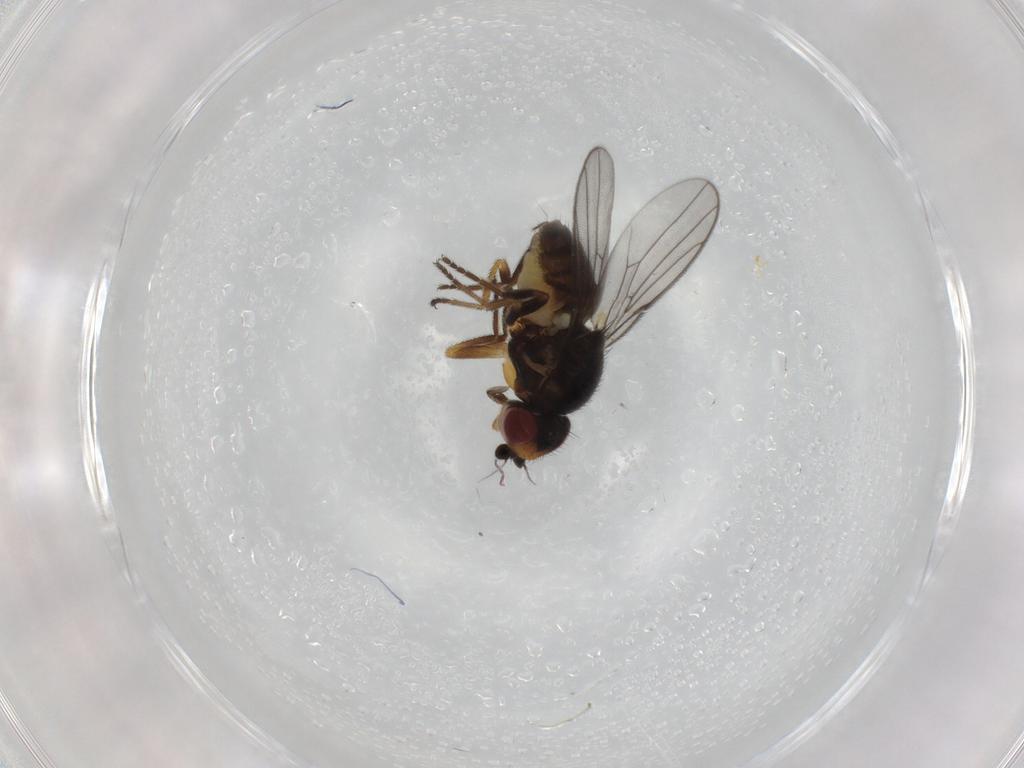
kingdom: Animalia
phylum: Arthropoda
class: Insecta
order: Diptera
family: Chloropidae
